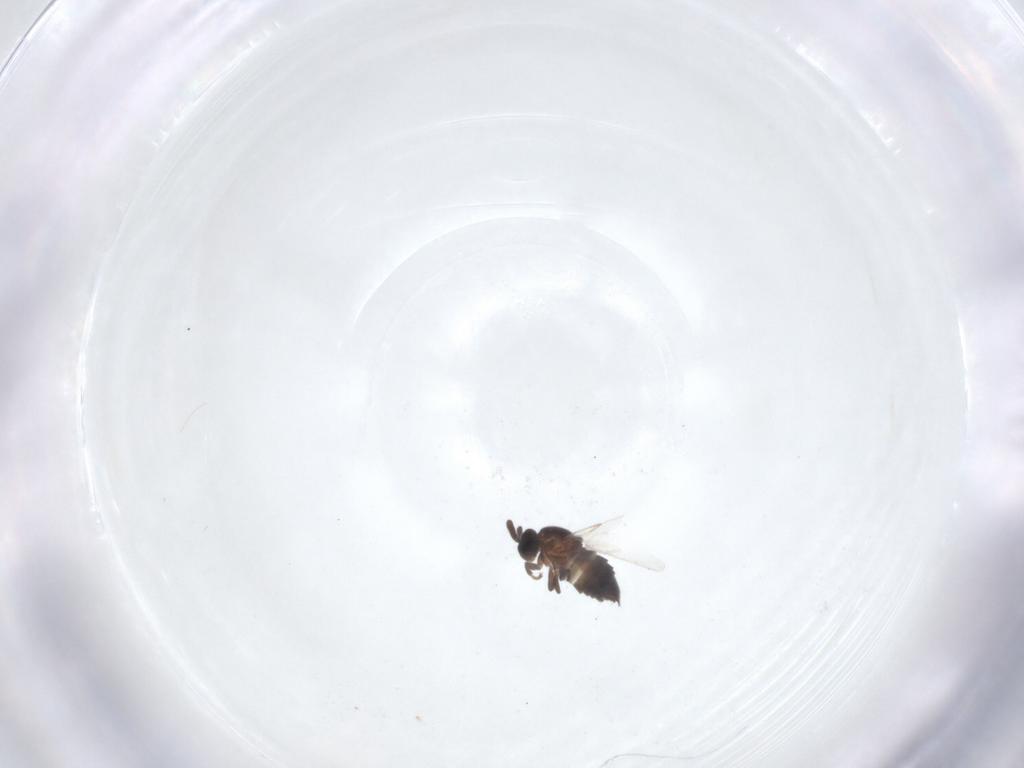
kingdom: Animalia
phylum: Arthropoda
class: Insecta
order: Diptera
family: Scatopsidae
